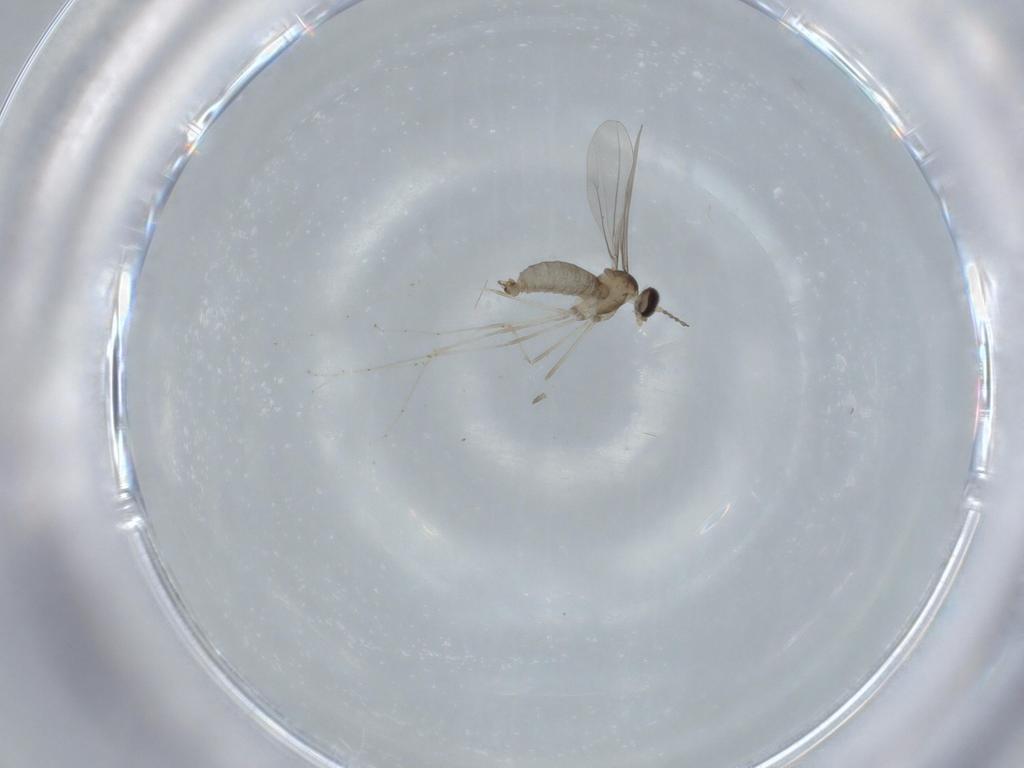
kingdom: Animalia
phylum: Arthropoda
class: Insecta
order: Diptera
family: Cecidomyiidae
